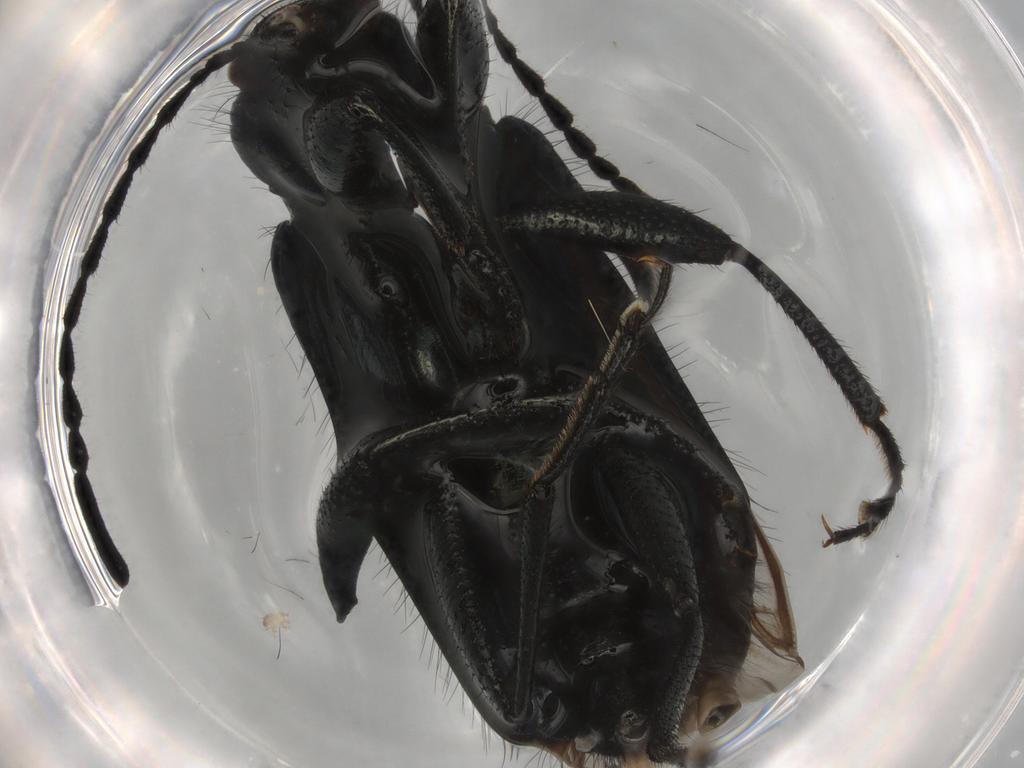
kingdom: Animalia
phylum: Arthropoda
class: Insecta
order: Coleoptera
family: Tenebrionidae
